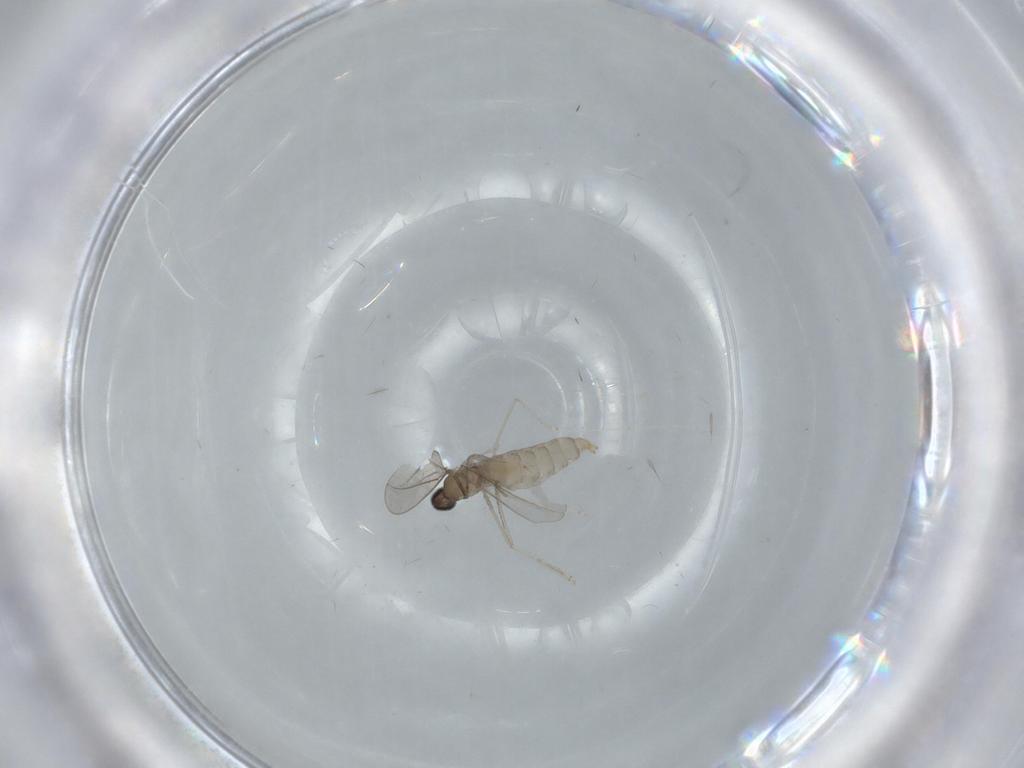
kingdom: Animalia
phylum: Arthropoda
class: Insecta
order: Diptera
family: Cecidomyiidae
